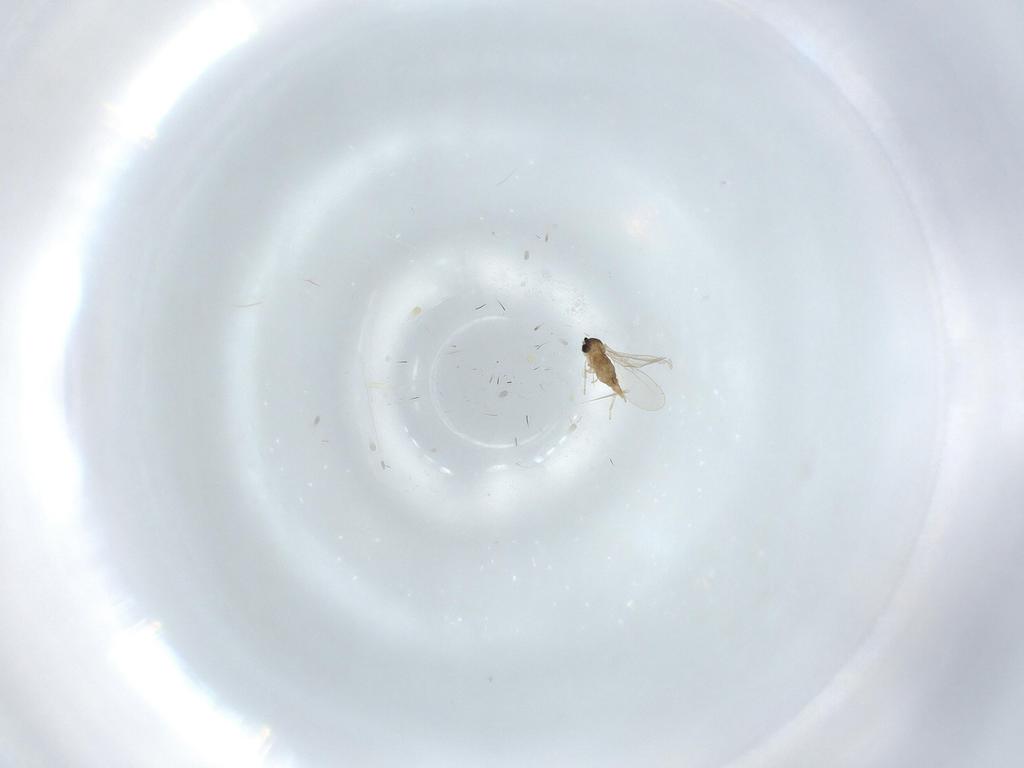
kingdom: Animalia
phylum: Arthropoda
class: Insecta
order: Diptera
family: Cecidomyiidae
